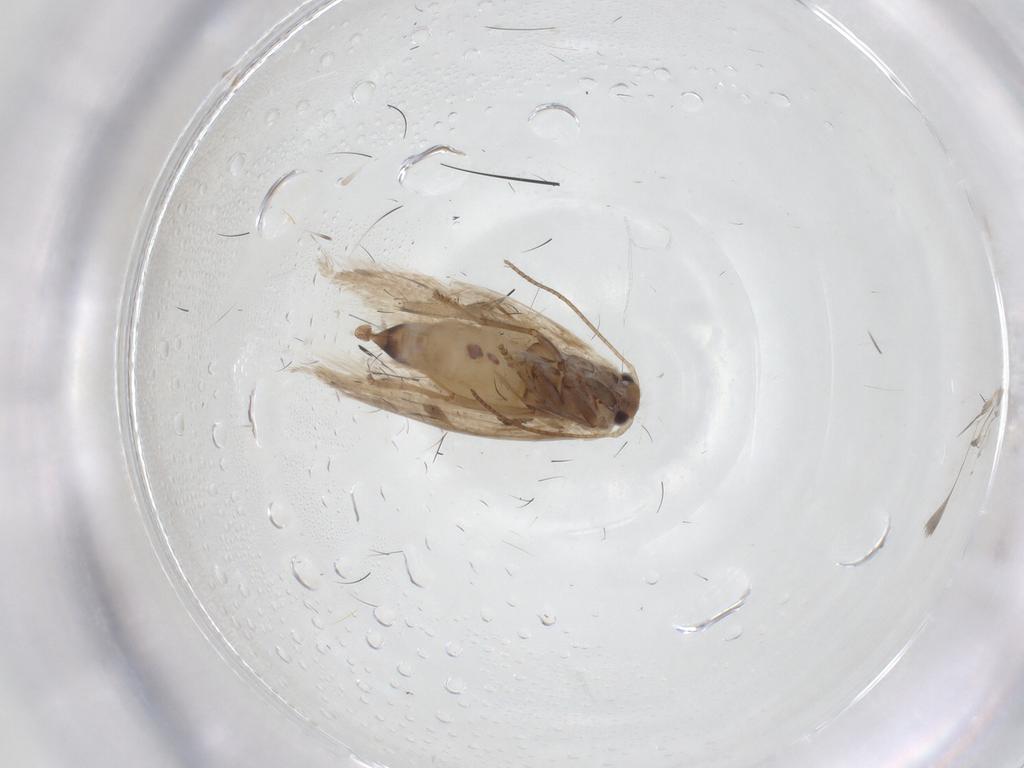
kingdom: Animalia
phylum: Arthropoda
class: Insecta
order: Lepidoptera
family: Bucculatricidae
